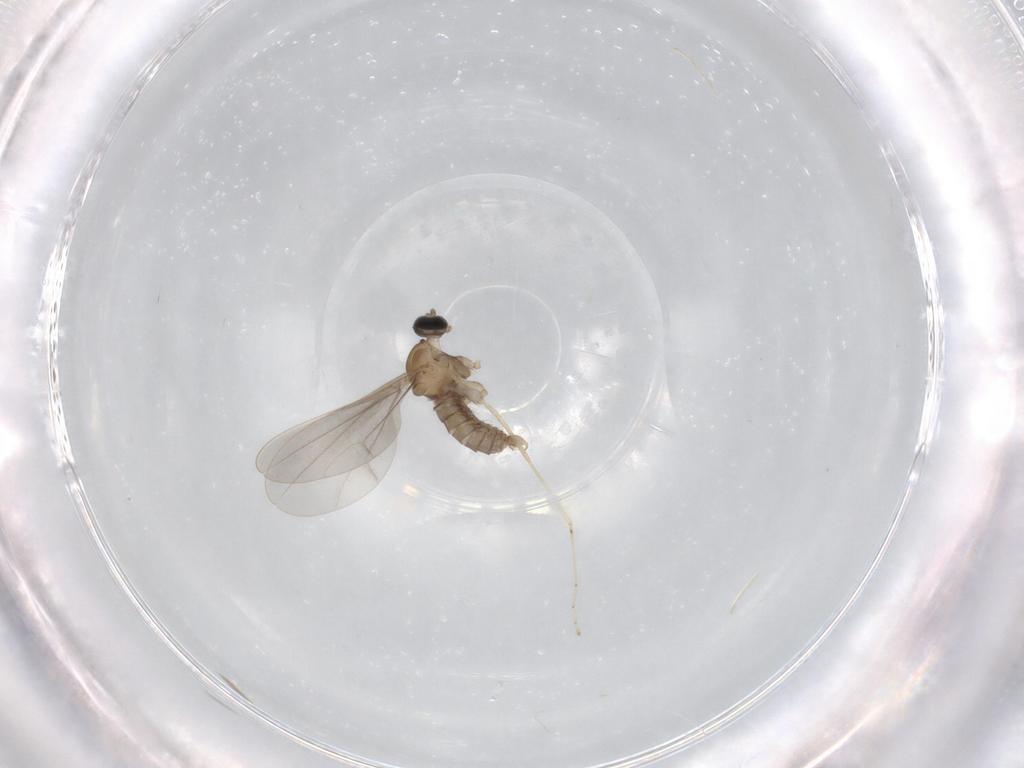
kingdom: Animalia
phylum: Arthropoda
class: Insecta
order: Diptera
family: Cecidomyiidae
